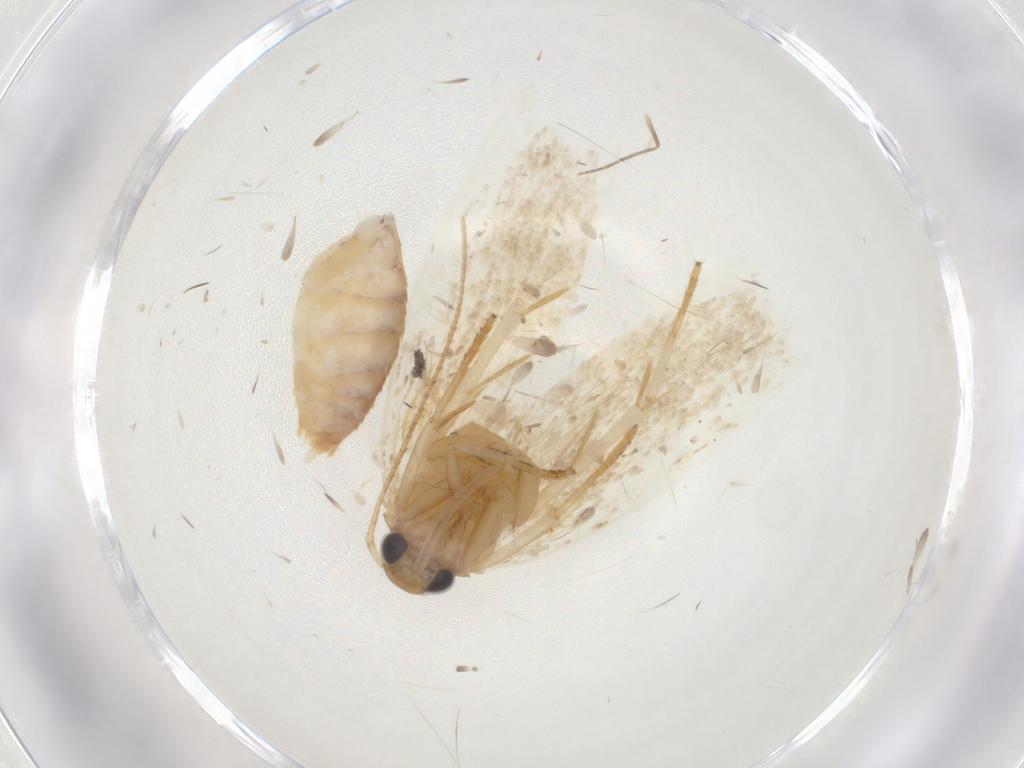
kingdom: Animalia
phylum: Arthropoda
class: Insecta
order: Lepidoptera
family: Oecophoridae
